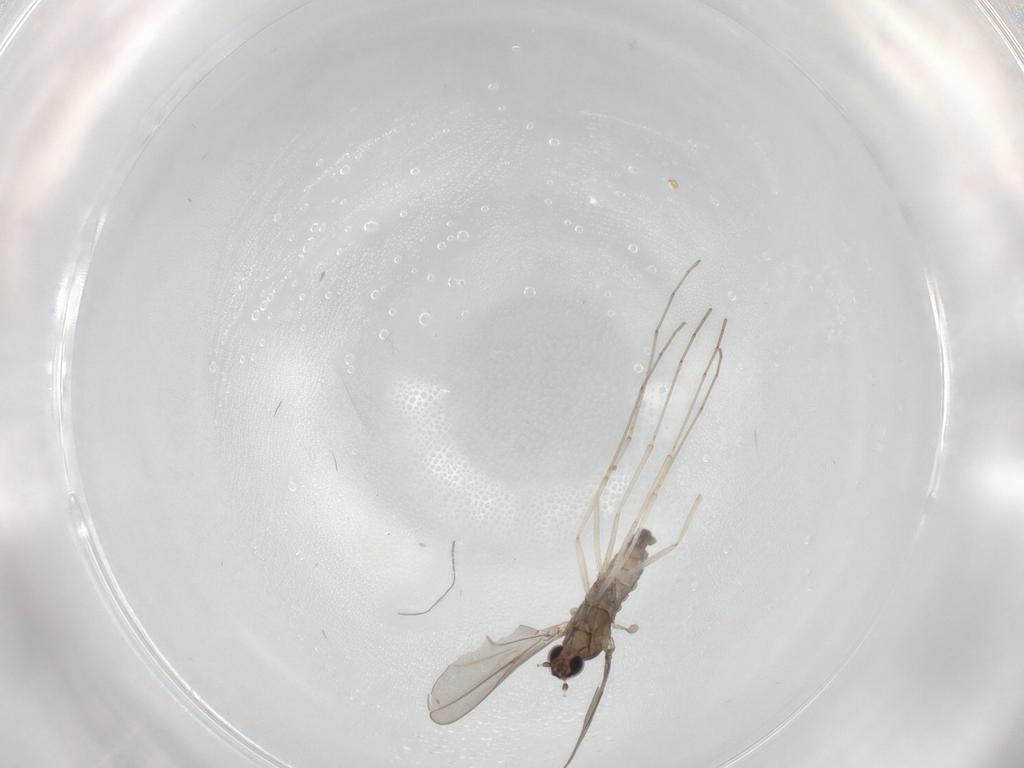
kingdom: Animalia
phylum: Arthropoda
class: Insecta
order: Diptera
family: Cecidomyiidae
